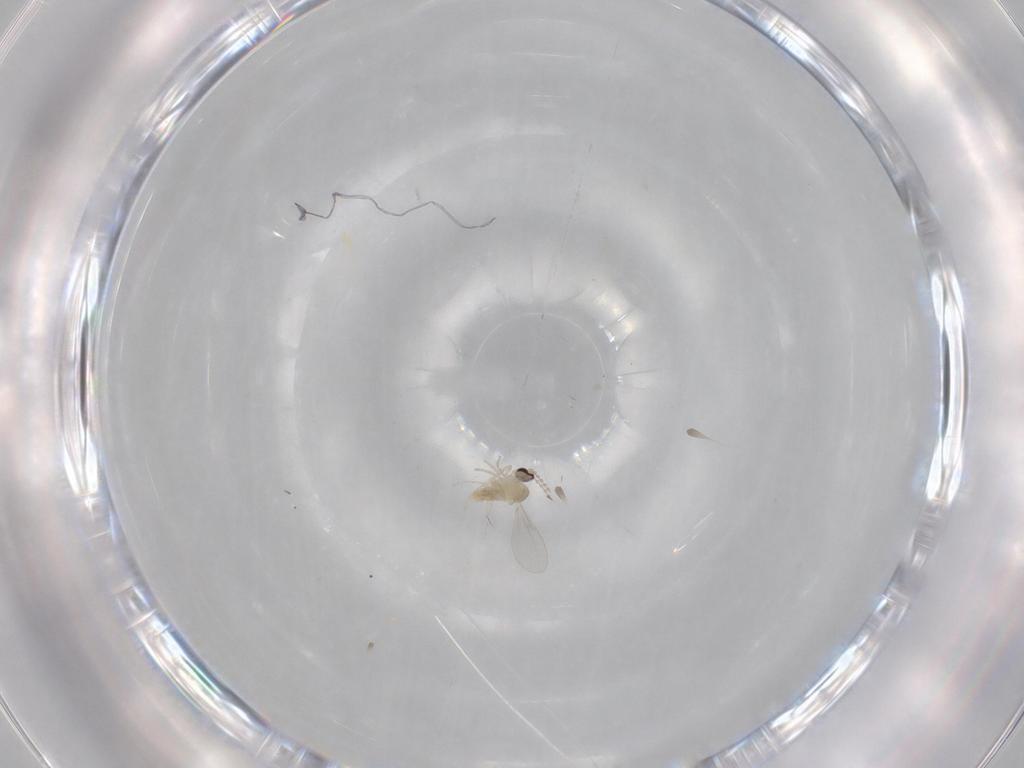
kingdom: Animalia
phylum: Arthropoda
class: Insecta
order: Diptera
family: Cecidomyiidae
